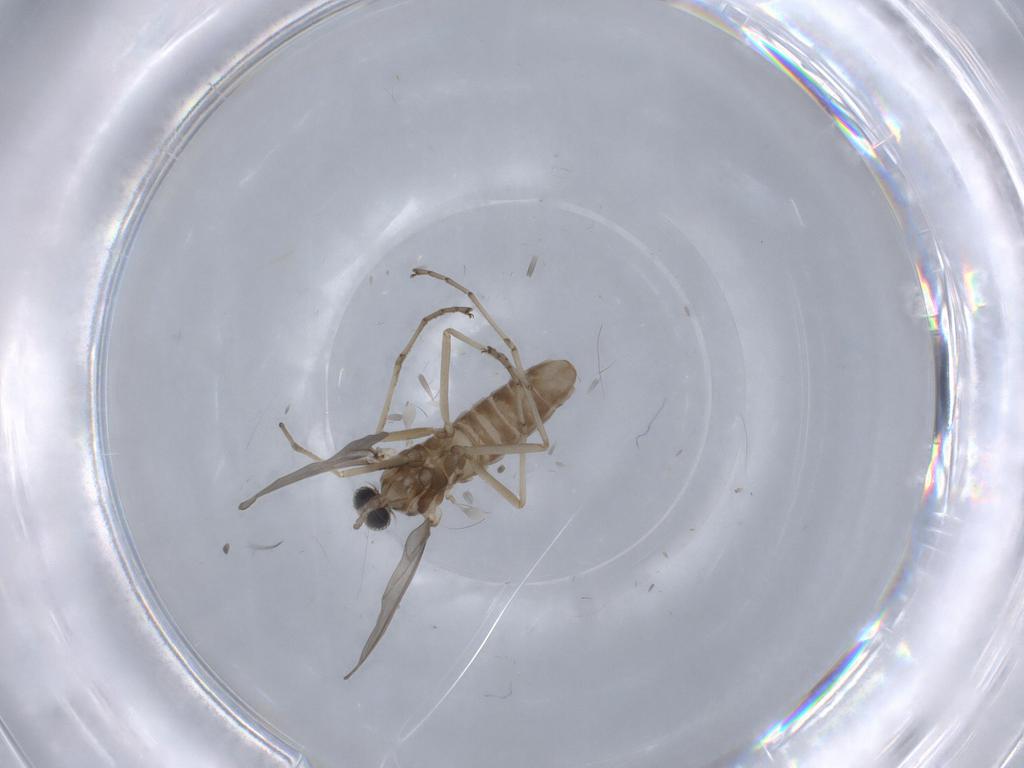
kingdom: Animalia
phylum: Arthropoda
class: Insecta
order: Diptera
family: Cecidomyiidae
